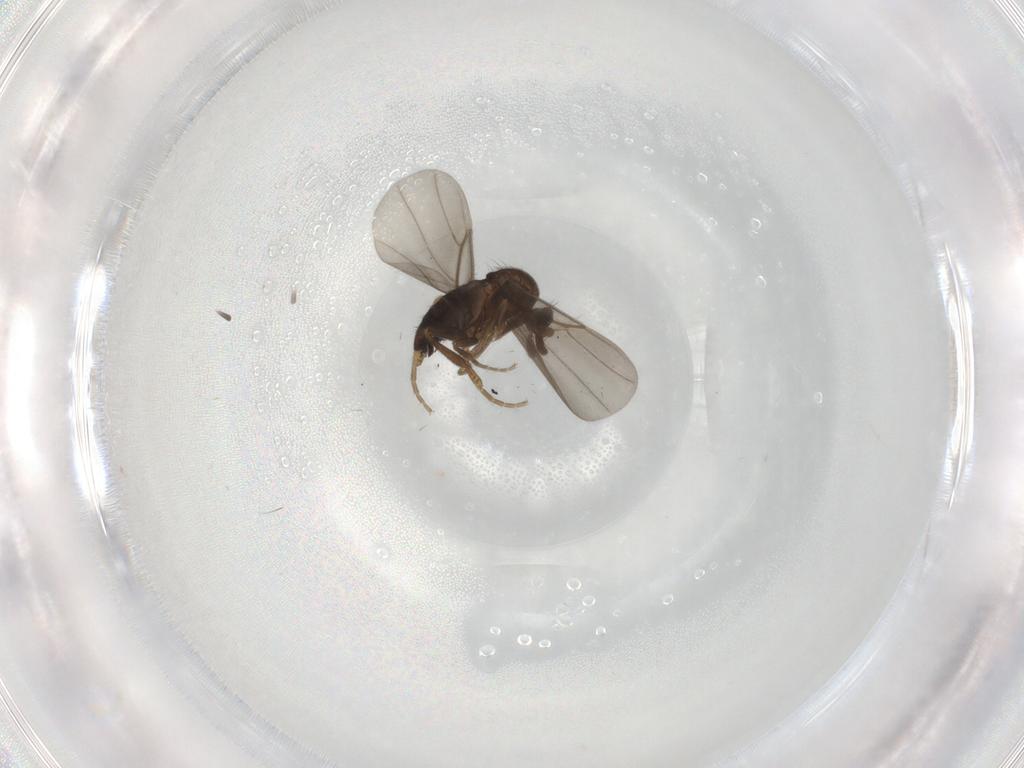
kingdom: Animalia
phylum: Arthropoda
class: Insecta
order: Diptera
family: Phoridae
